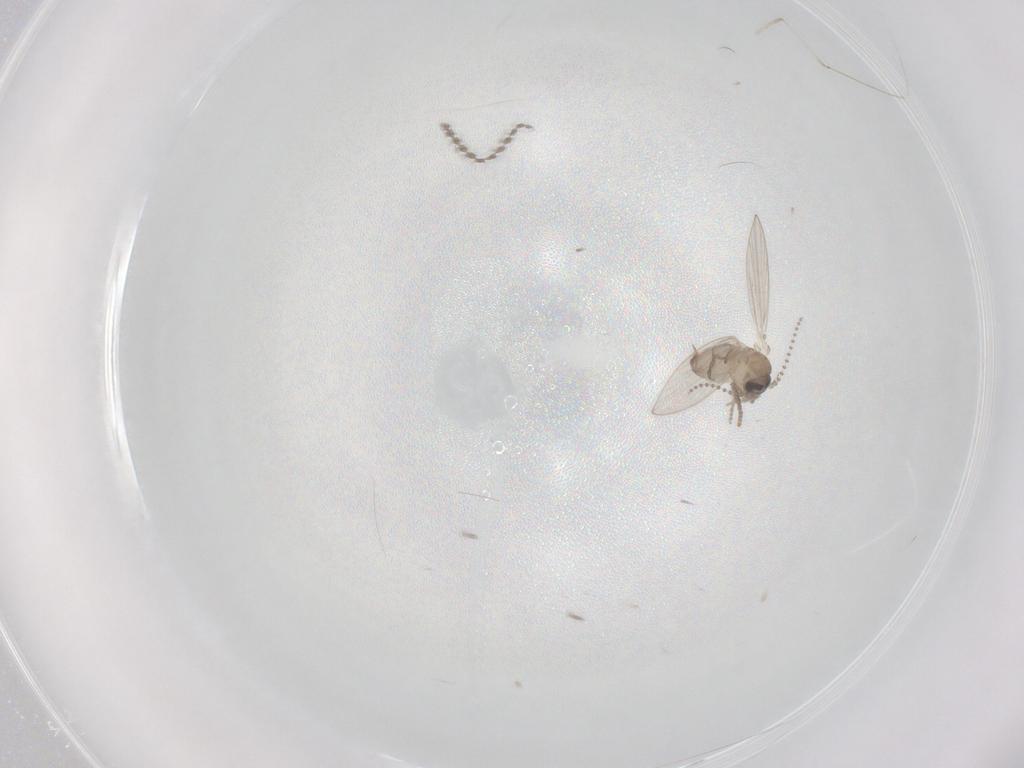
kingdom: Animalia
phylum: Arthropoda
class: Insecta
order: Diptera
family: Psychodidae
